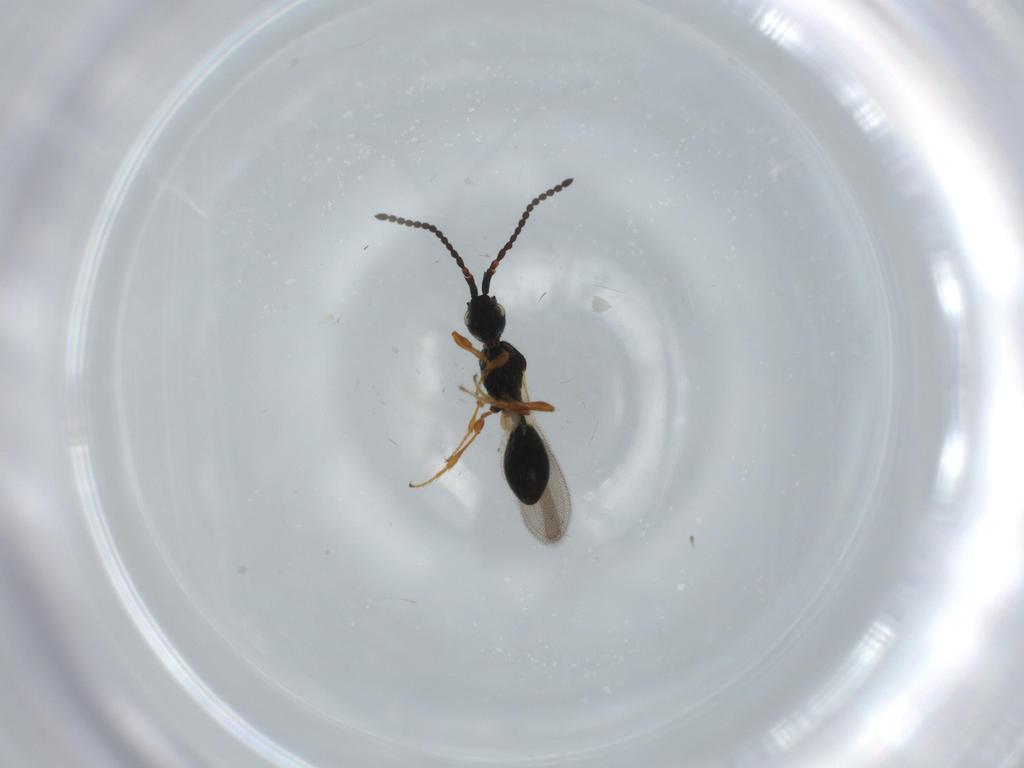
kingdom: Animalia
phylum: Arthropoda
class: Insecta
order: Hymenoptera
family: Diapriidae
